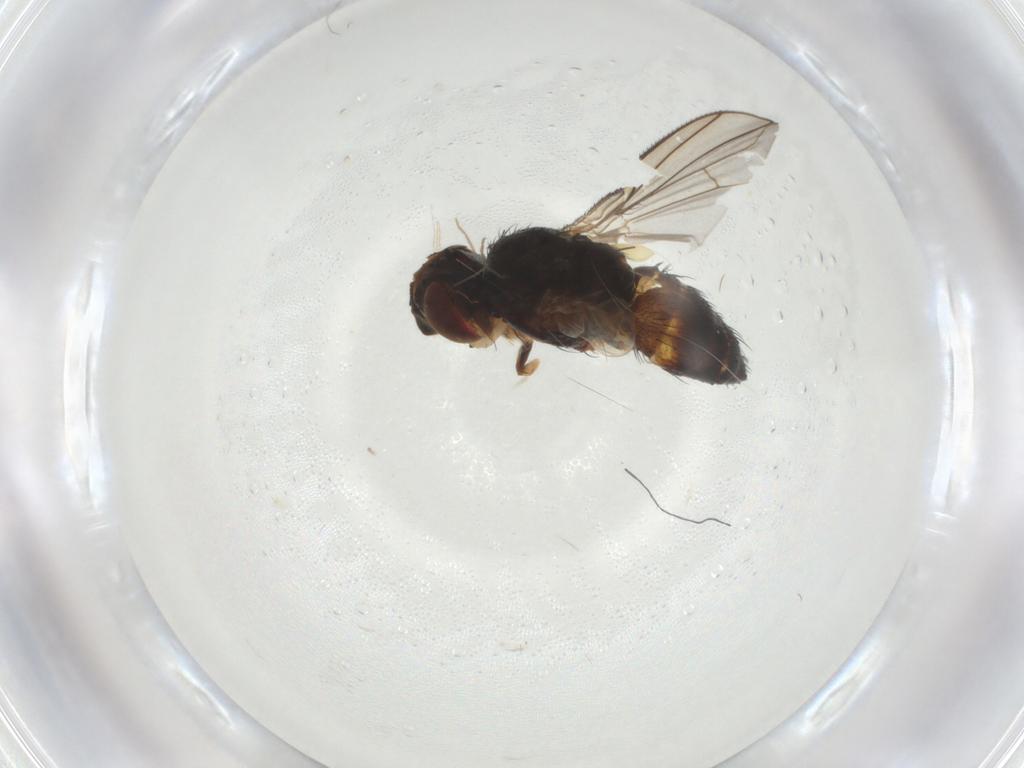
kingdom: Animalia
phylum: Arthropoda
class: Insecta
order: Diptera
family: Tachinidae
